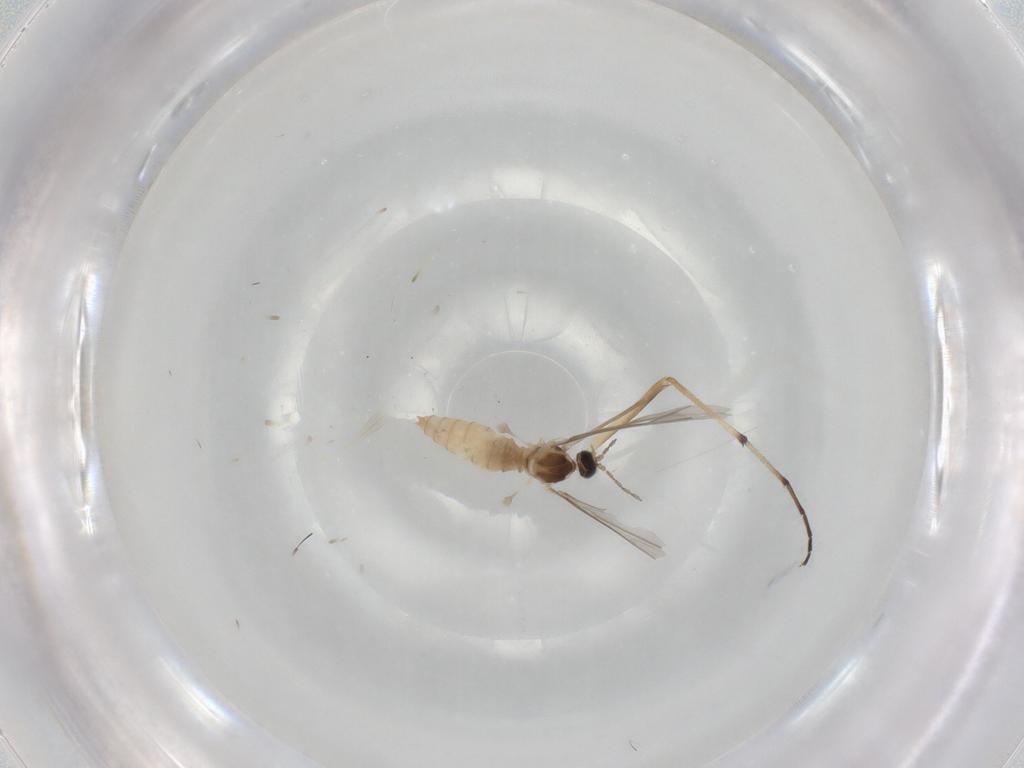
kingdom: Animalia
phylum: Arthropoda
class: Insecta
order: Diptera
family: Cecidomyiidae
